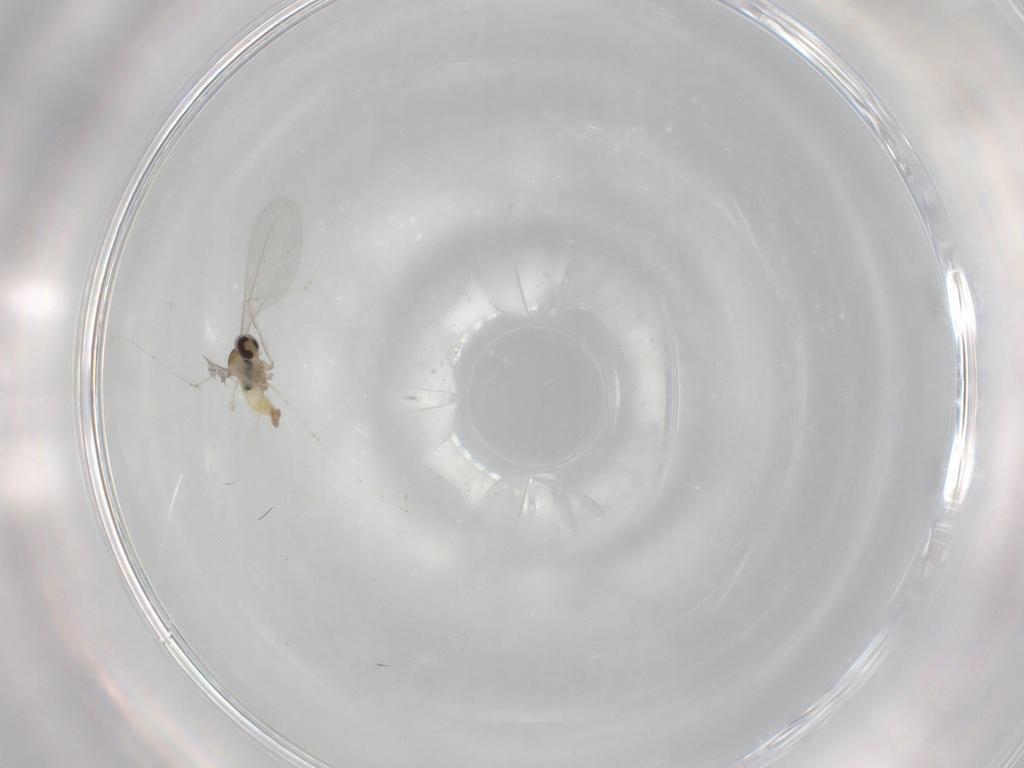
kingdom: Animalia
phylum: Arthropoda
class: Insecta
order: Diptera
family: Cecidomyiidae
